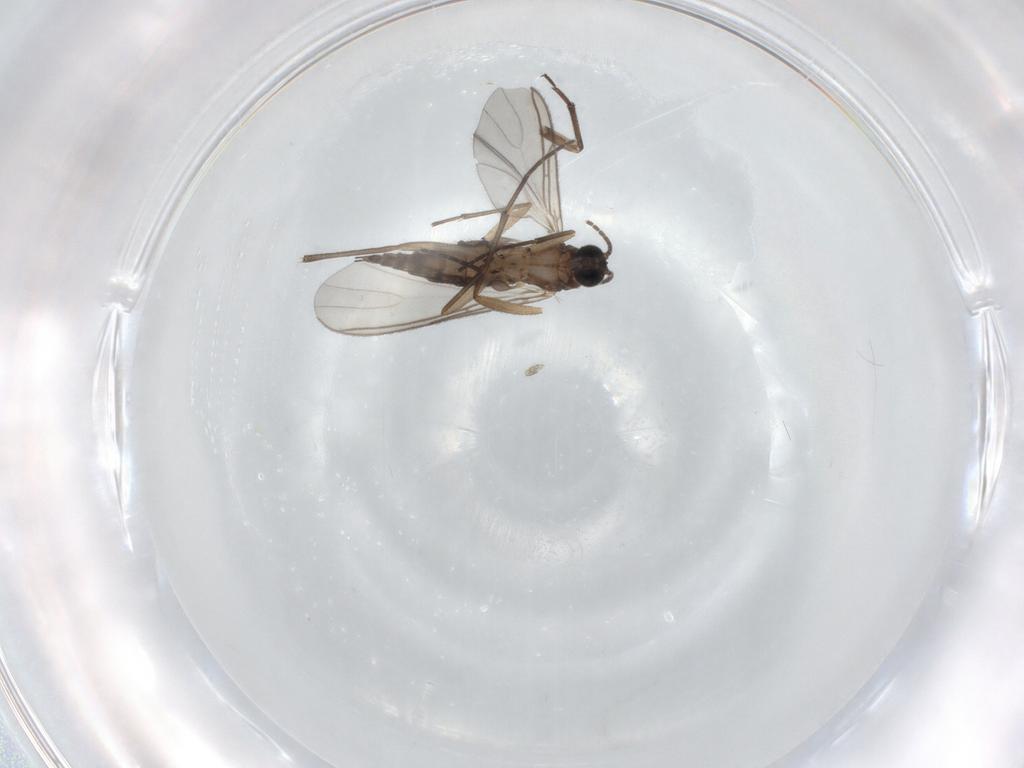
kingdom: Animalia
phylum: Arthropoda
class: Insecta
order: Diptera
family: Sciaridae
